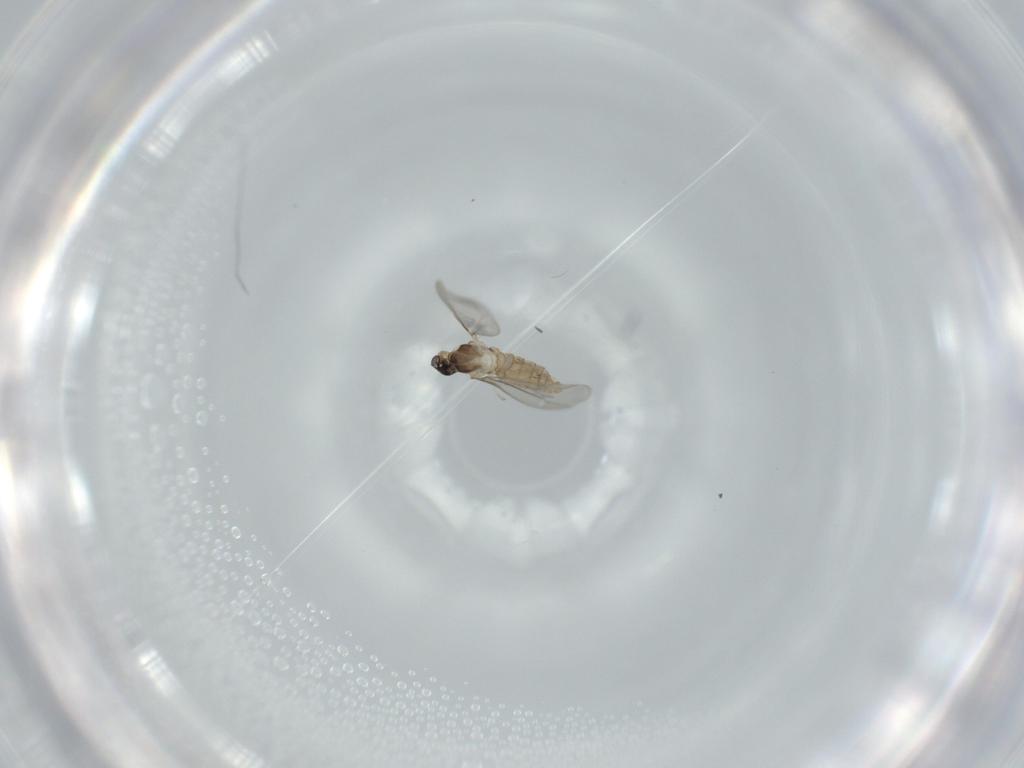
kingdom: Animalia
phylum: Arthropoda
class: Insecta
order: Diptera
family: Cecidomyiidae
